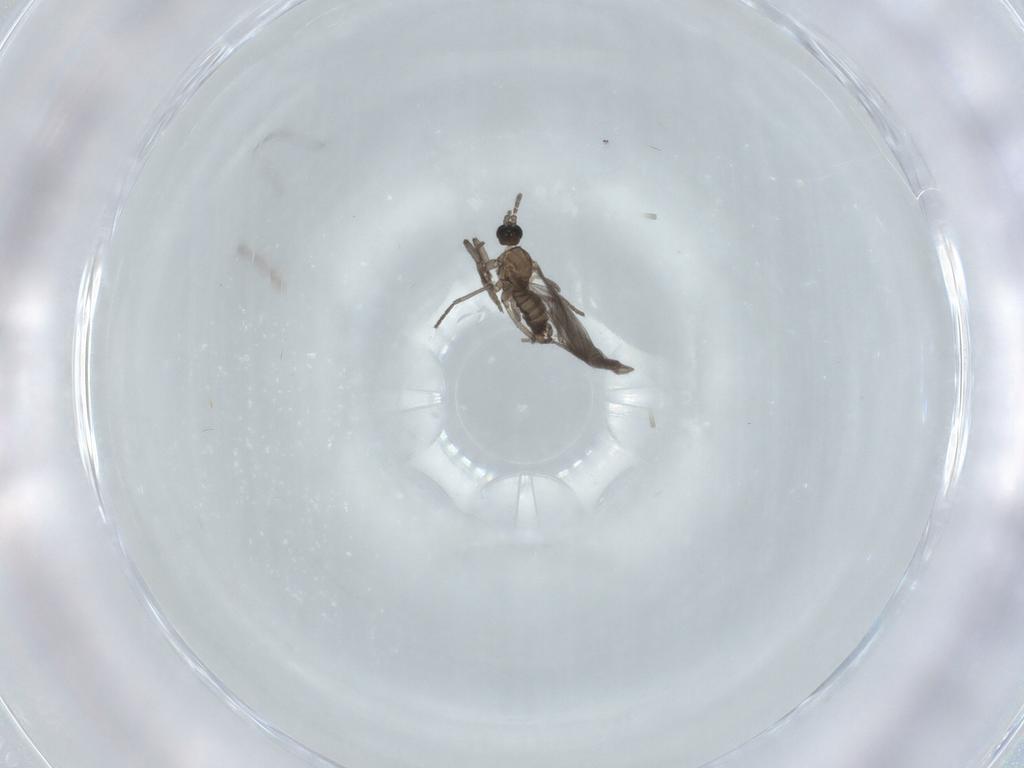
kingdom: Animalia
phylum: Arthropoda
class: Insecta
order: Diptera
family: Sciaridae
